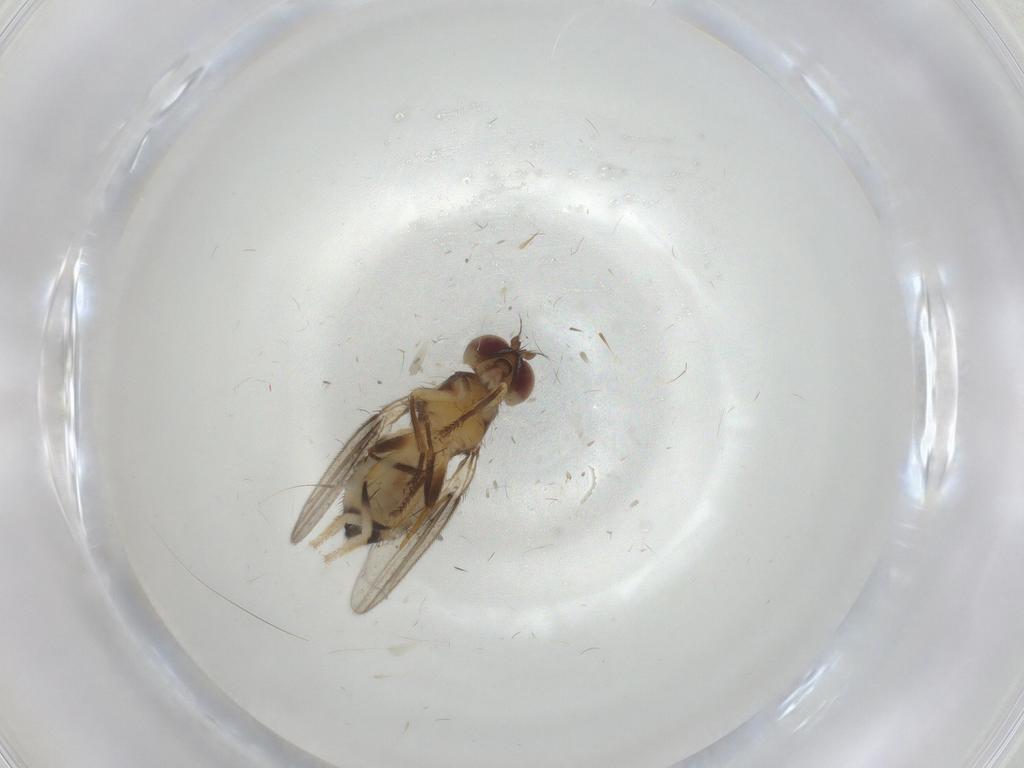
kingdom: Animalia
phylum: Arthropoda
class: Insecta
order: Diptera
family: Periscelididae
